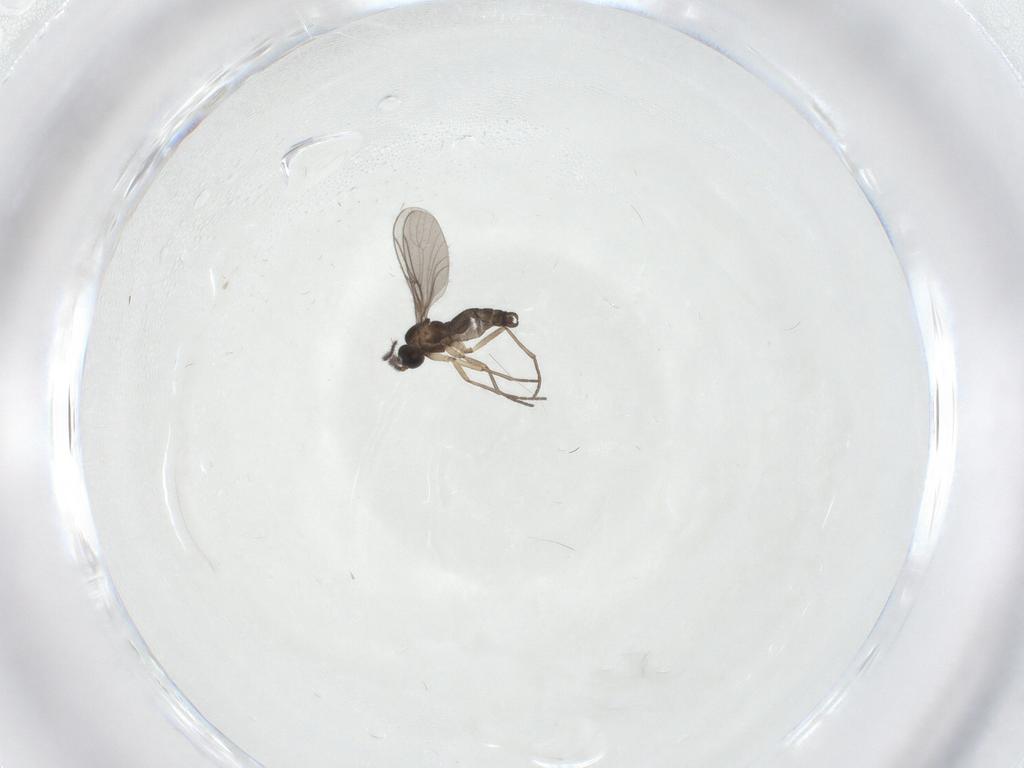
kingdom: Animalia
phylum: Arthropoda
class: Insecta
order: Diptera
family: Sciaridae
